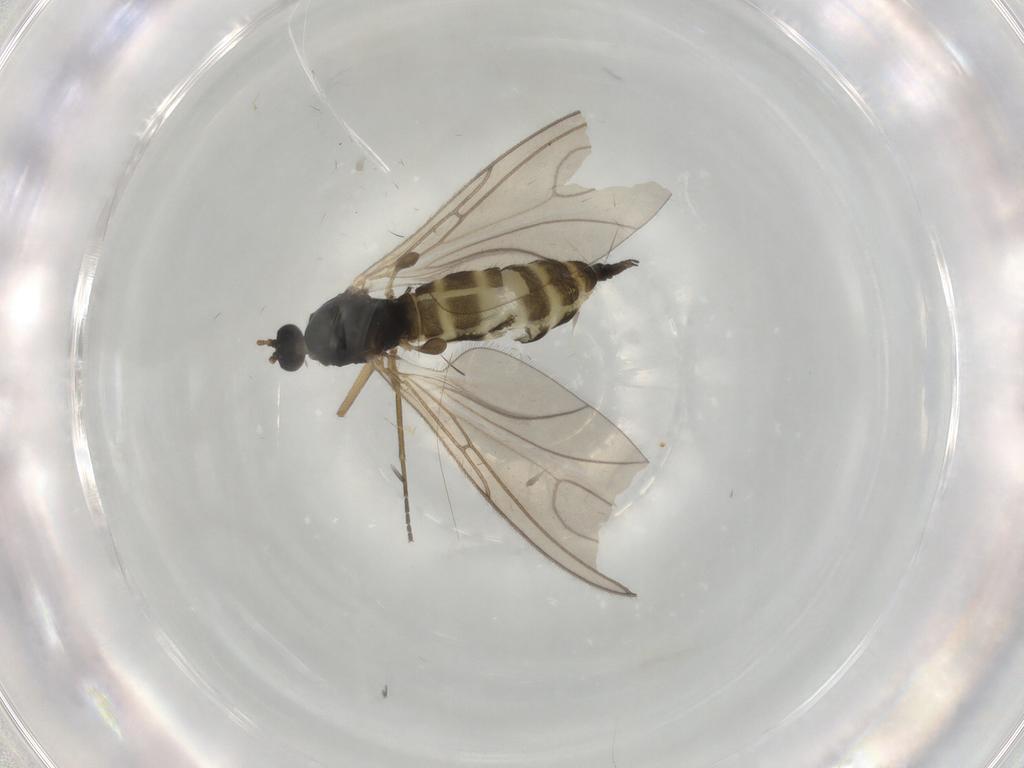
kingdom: Animalia
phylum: Arthropoda
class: Insecta
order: Diptera
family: Sciaridae
